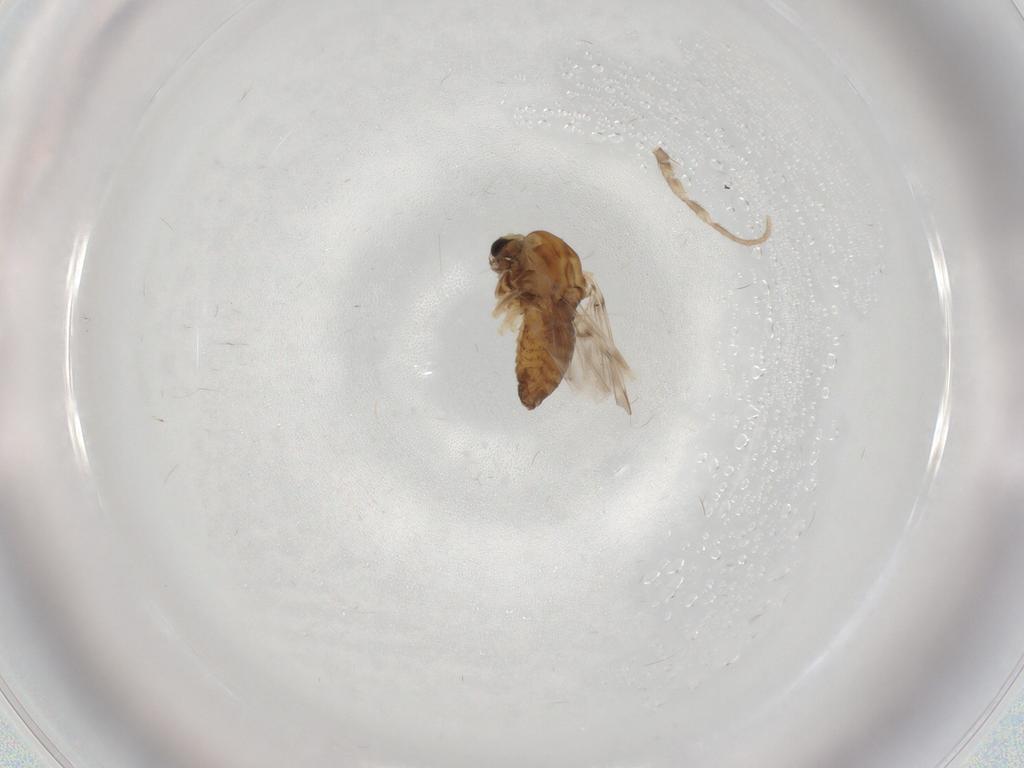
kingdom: Animalia
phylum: Arthropoda
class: Insecta
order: Diptera
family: Chironomidae
